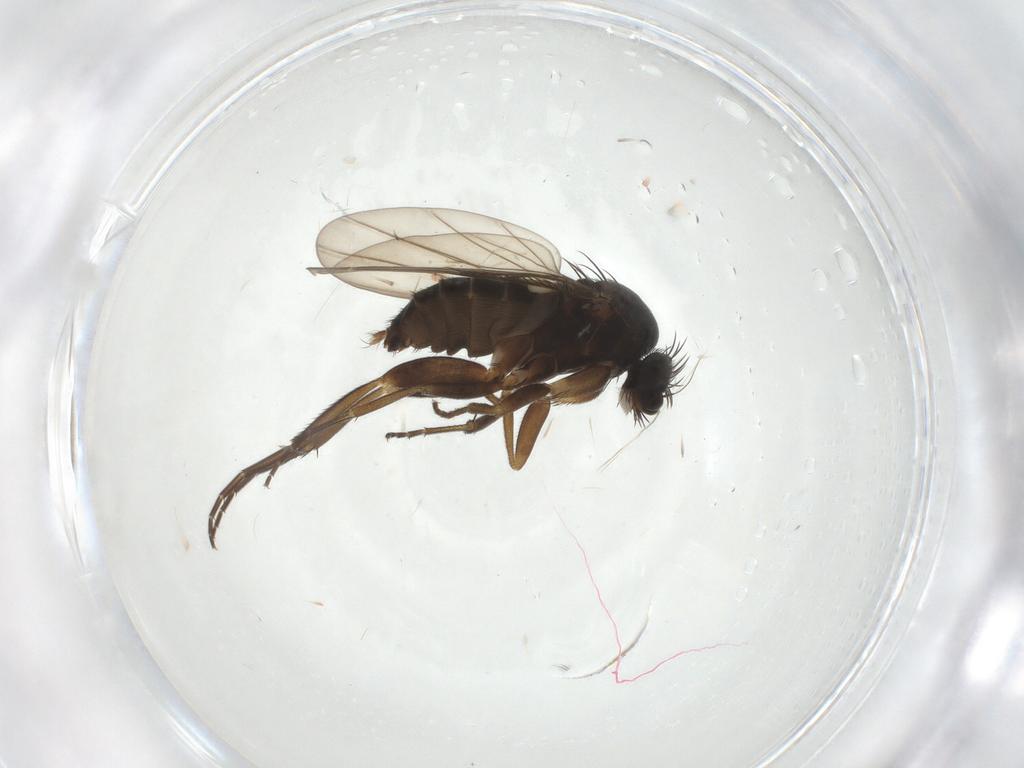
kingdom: Animalia
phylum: Arthropoda
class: Insecta
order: Diptera
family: Phoridae
